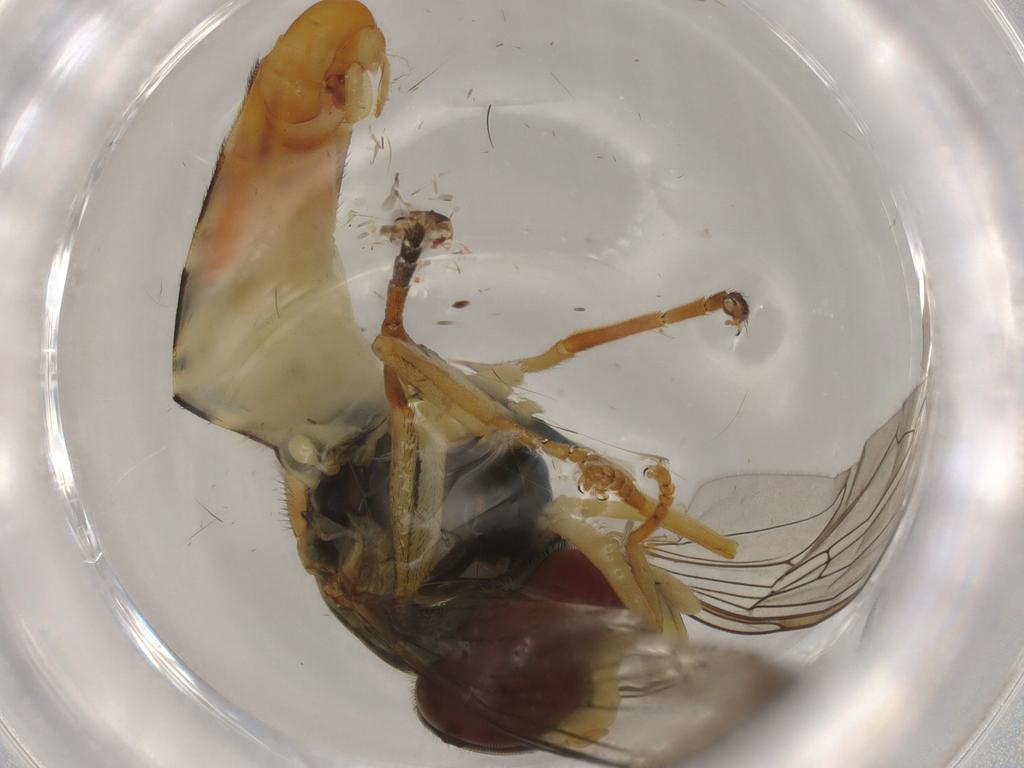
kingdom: Animalia
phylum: Arthropoda
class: Insecta
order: Diptera
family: Syrphidae
